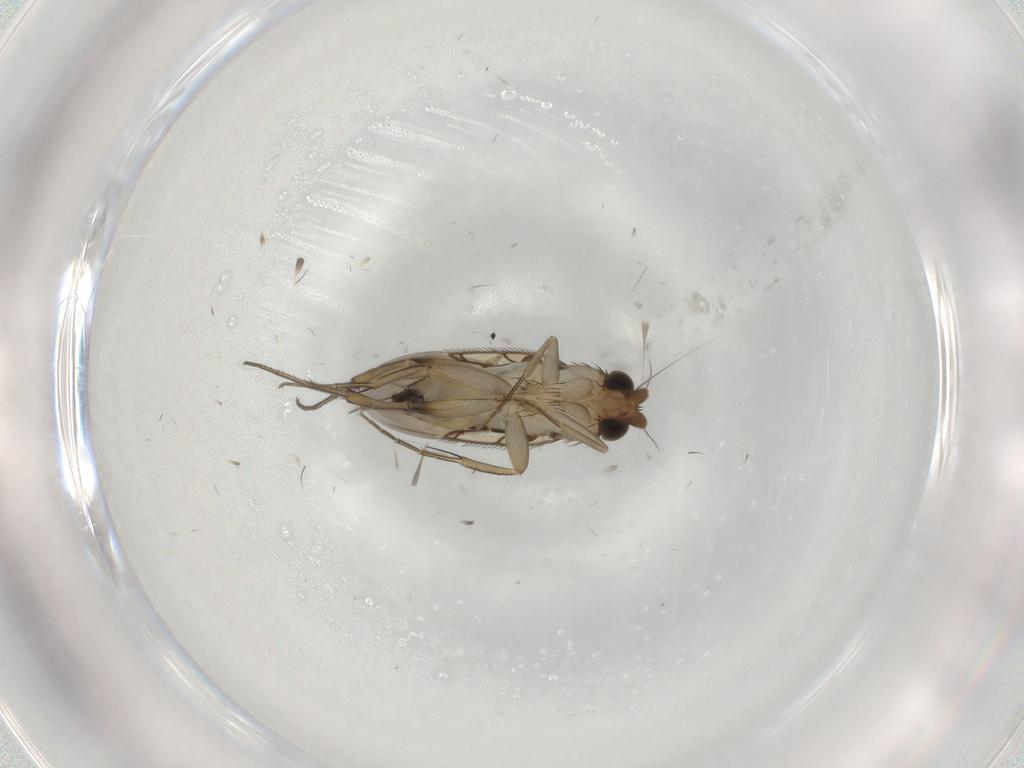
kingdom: Animalia
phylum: Arthropoda
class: Insecta
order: Diptera
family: Phoridae
